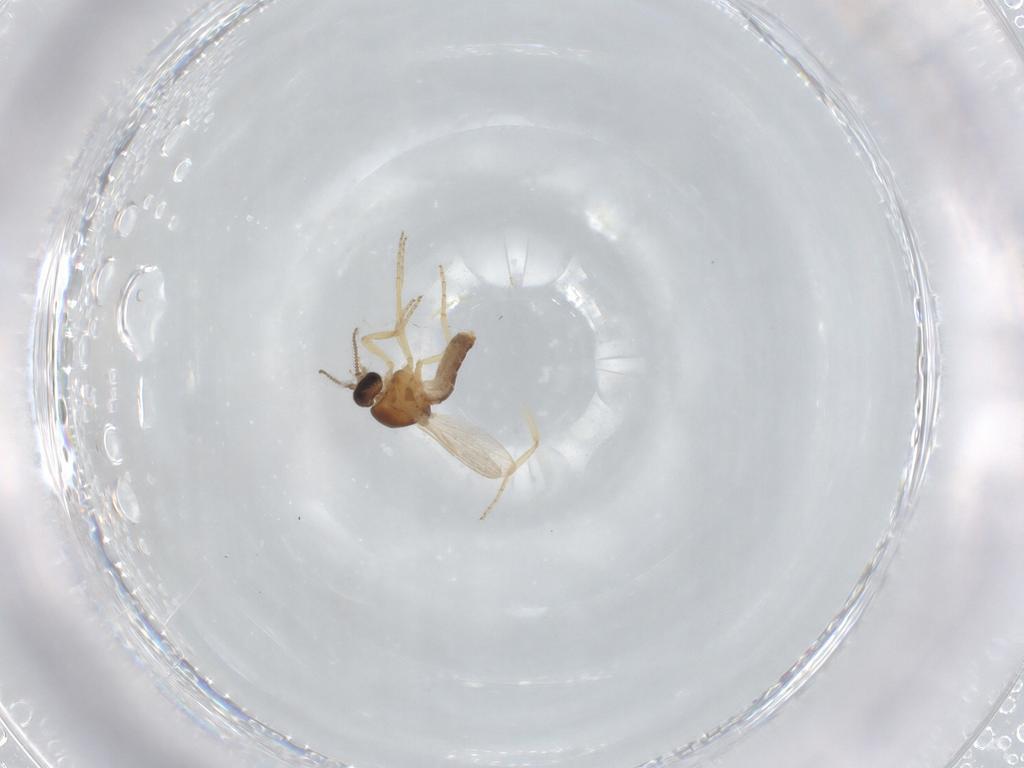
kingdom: Animalia
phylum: Arthropoda
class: Insecta
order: Diptera
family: Ceratopogonidae
